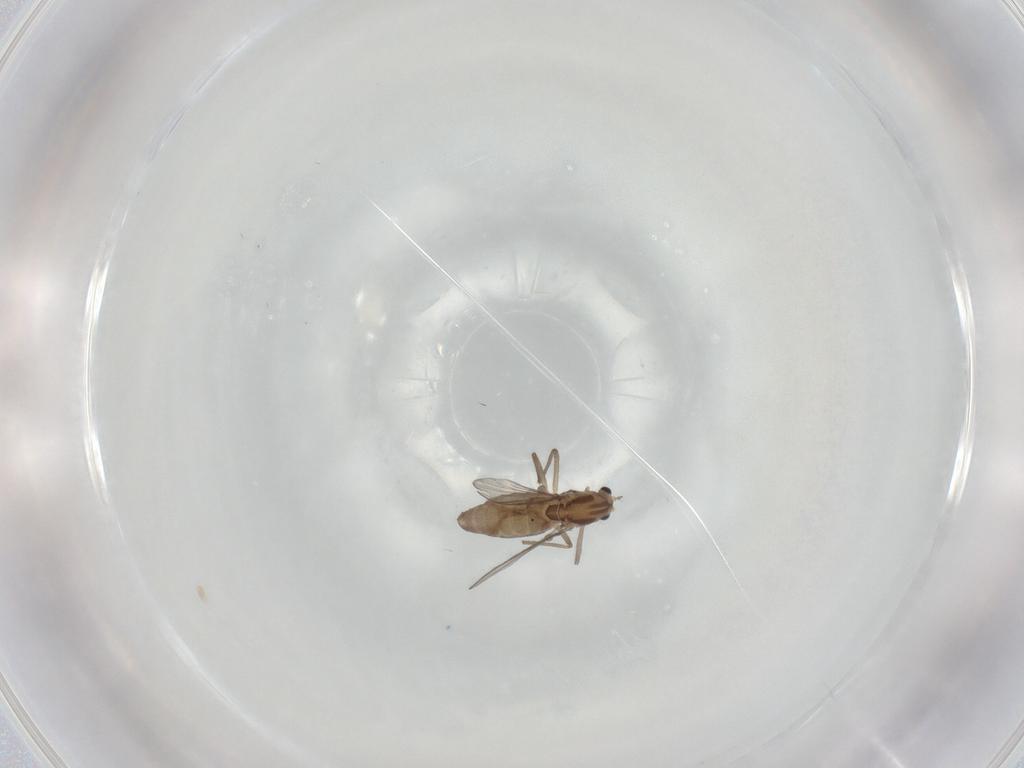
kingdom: Animalia
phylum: Arthropoda
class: Insecta
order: Diptera
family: Chironomidae
